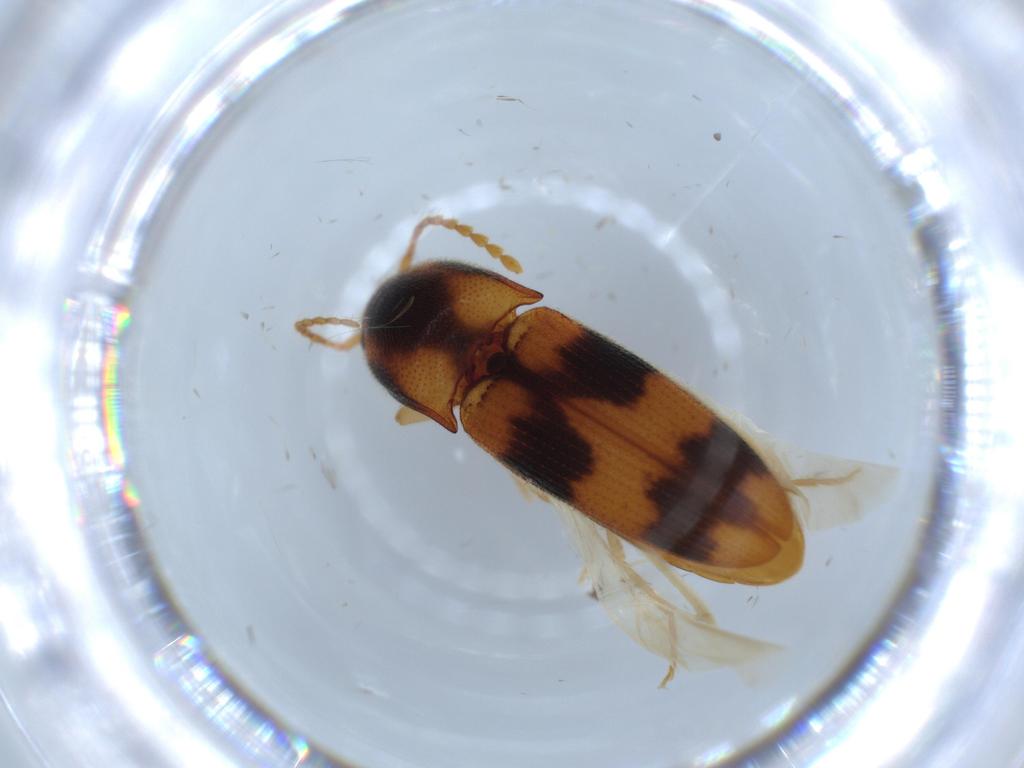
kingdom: Animalia
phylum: Arthropoda
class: Insecta
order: Coleoptera
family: Elateridae
